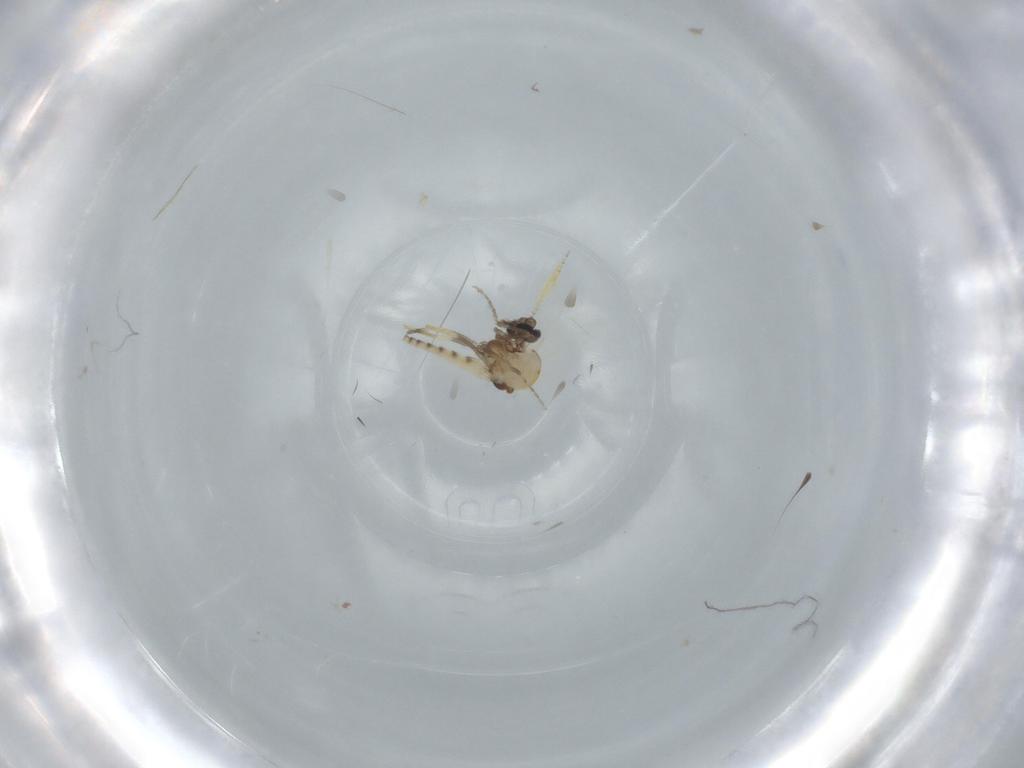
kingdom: Animalia
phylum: Arthropoda
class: Insecta
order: Diptera
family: Ceratopogonidae
